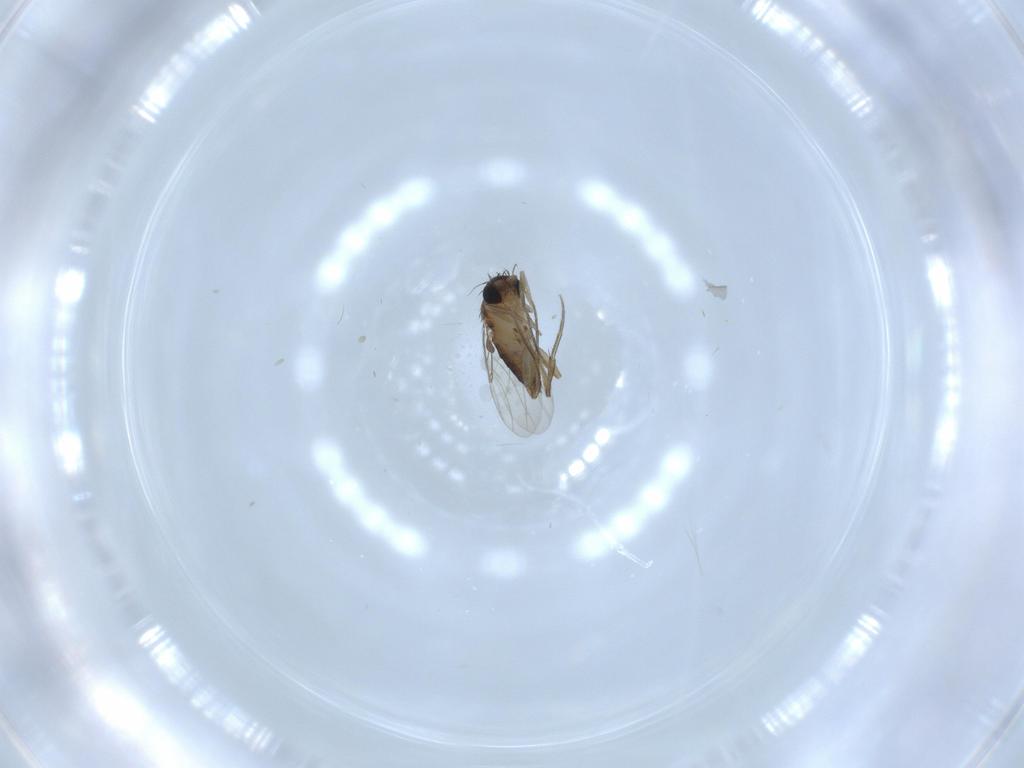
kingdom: Animalia
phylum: Arthropoda
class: Insecta
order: Diptera
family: Phoridae
